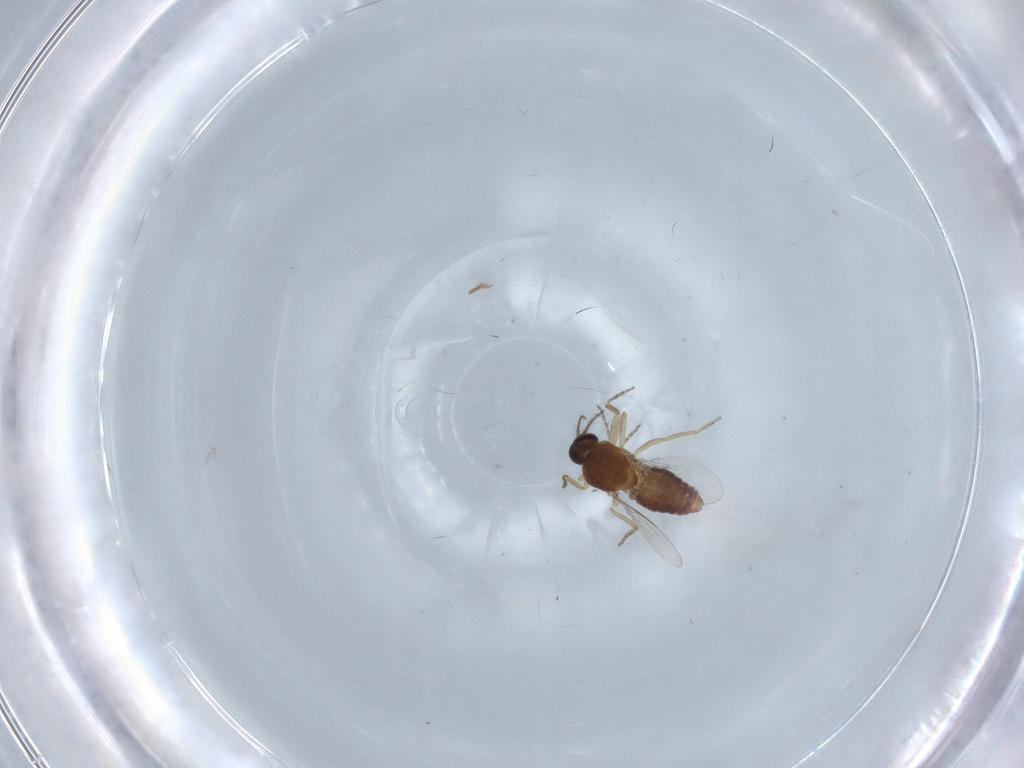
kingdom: Animalia
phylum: Arthropoda
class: Insecta
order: Diptera
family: Ceratopogonidae
